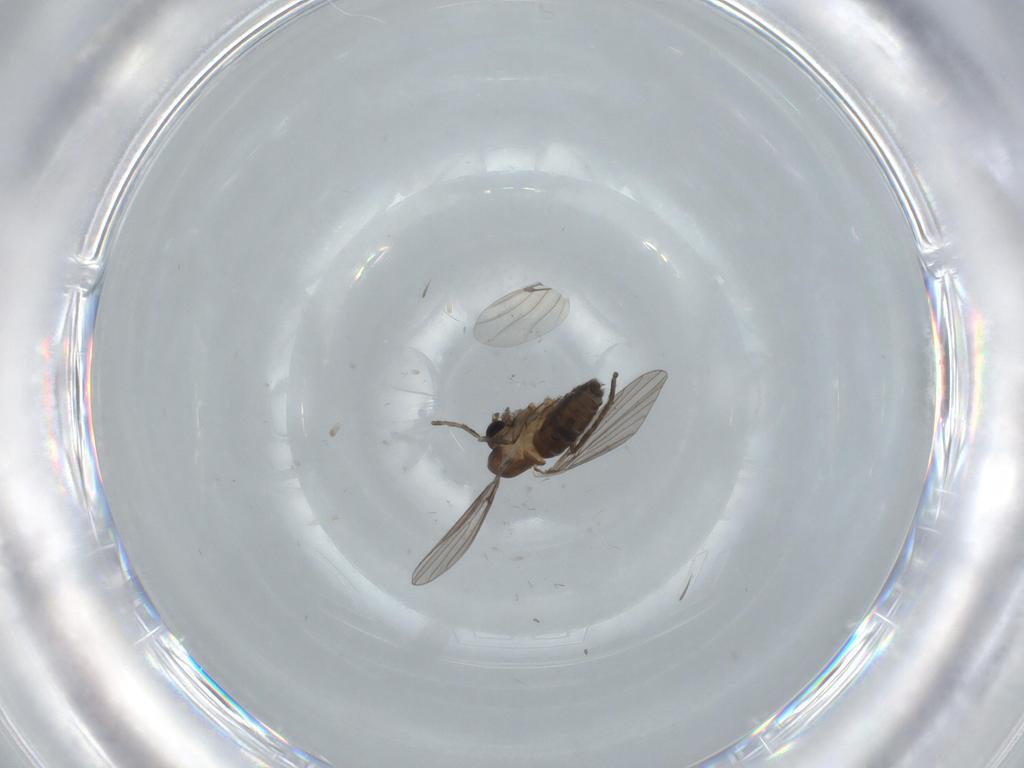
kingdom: Animalia
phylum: Arthropoda
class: Insecta
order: Diptera
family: Psychodidae
